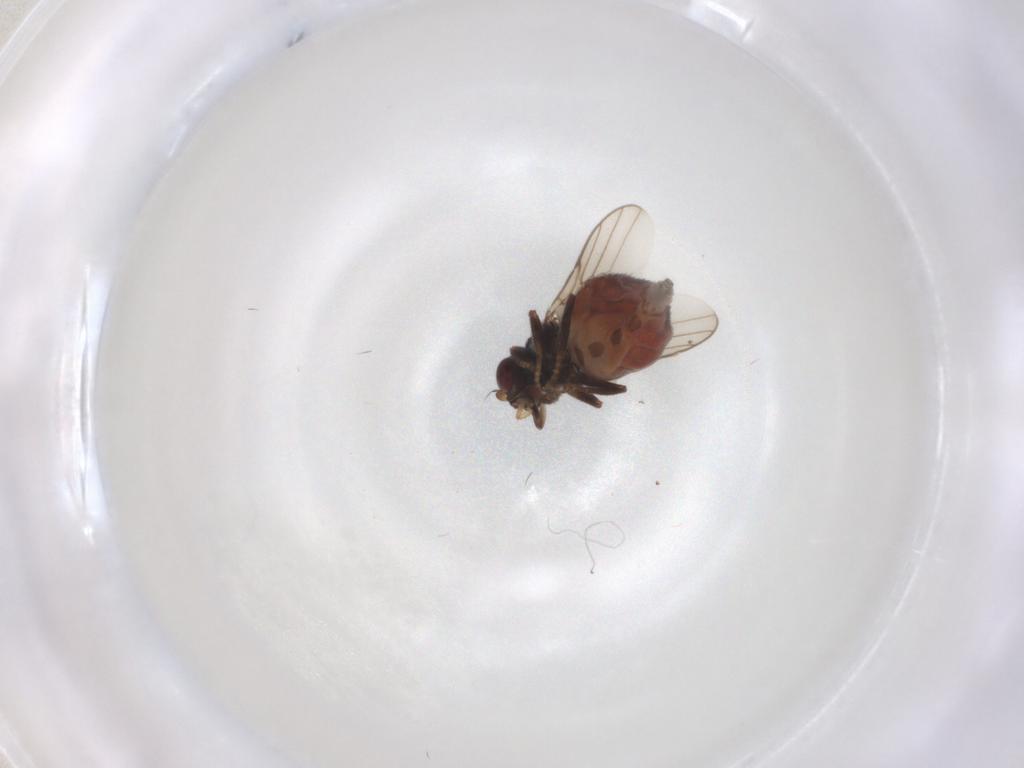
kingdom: Animalia
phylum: Arthropoda
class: Insecta
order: Diptera
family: Chloropidae
